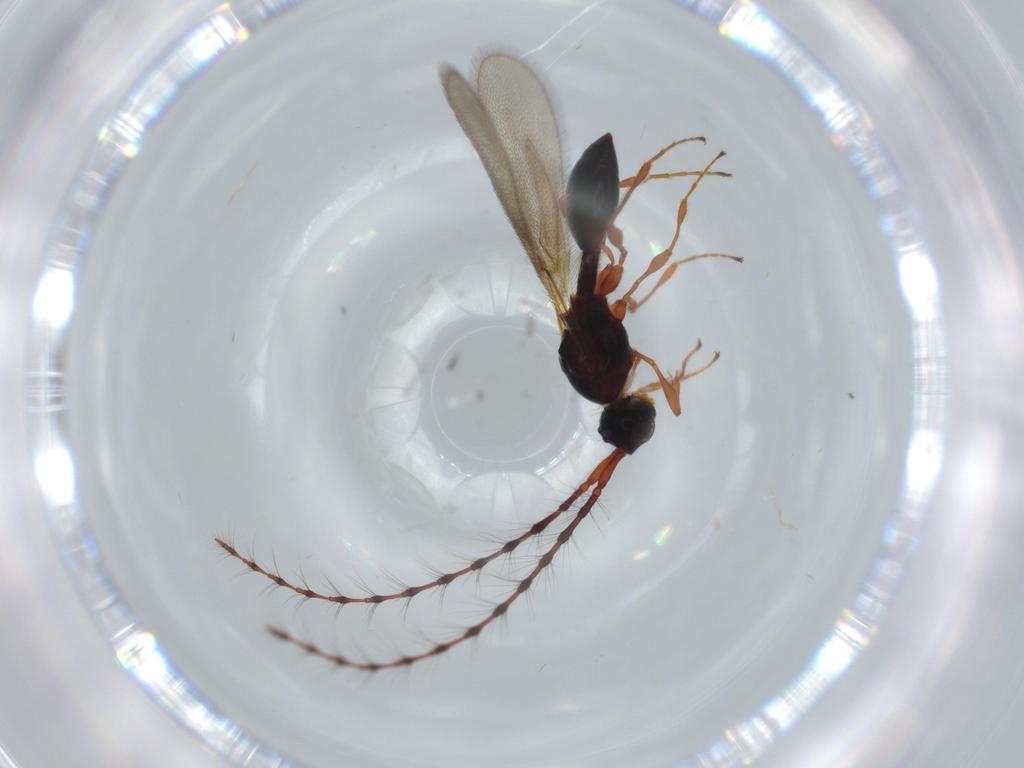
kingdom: Animalia
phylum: Arthropoda
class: Insecta
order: Hymenoptera
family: Diapriidae
